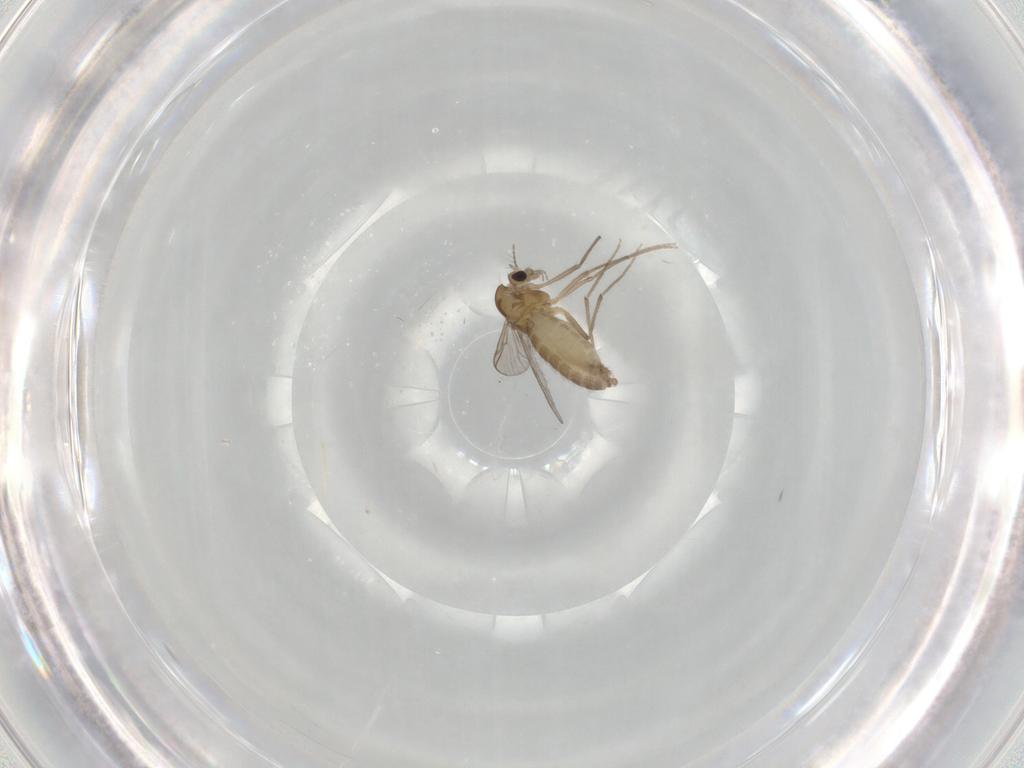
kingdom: Animalia
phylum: Arthropoda
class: Insecta
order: Diptera
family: Chironomidae
